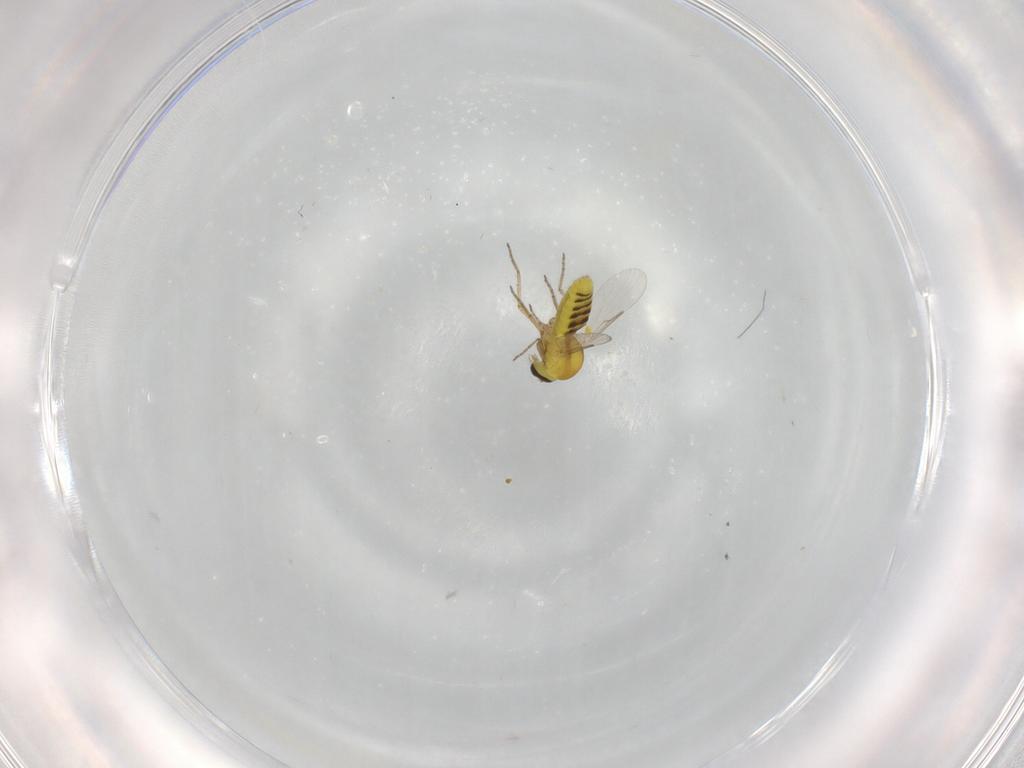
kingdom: Animalia
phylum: Arthropoda
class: Insecta
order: Diptera
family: Ceratopogonidae
